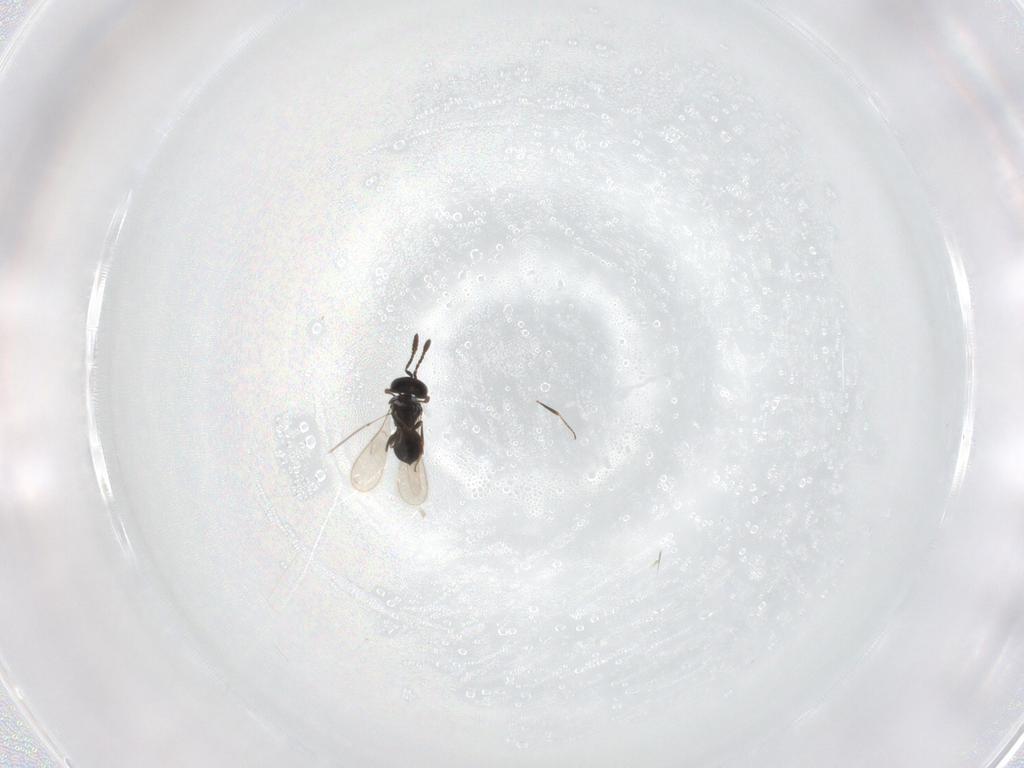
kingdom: Animalia
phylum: Arthropoda
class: Insecta
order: Hymenoptera
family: Scelionidae
